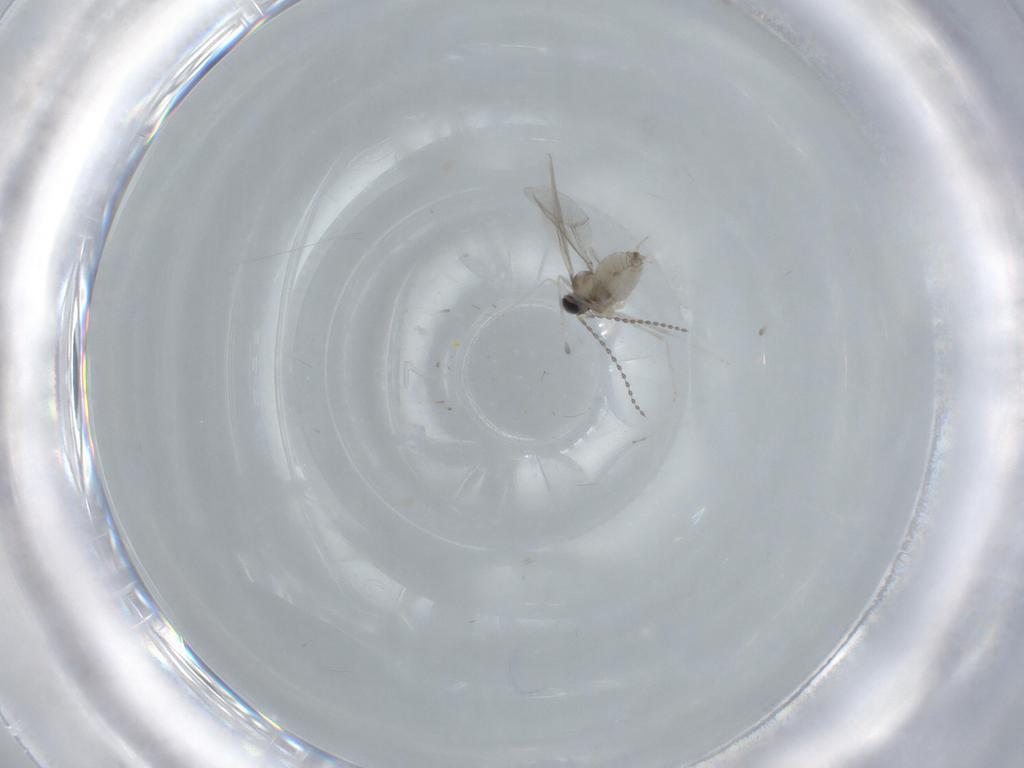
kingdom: Animalia
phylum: Arthropoda
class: Insecta
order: Diptera
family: Cecidomyiidae
